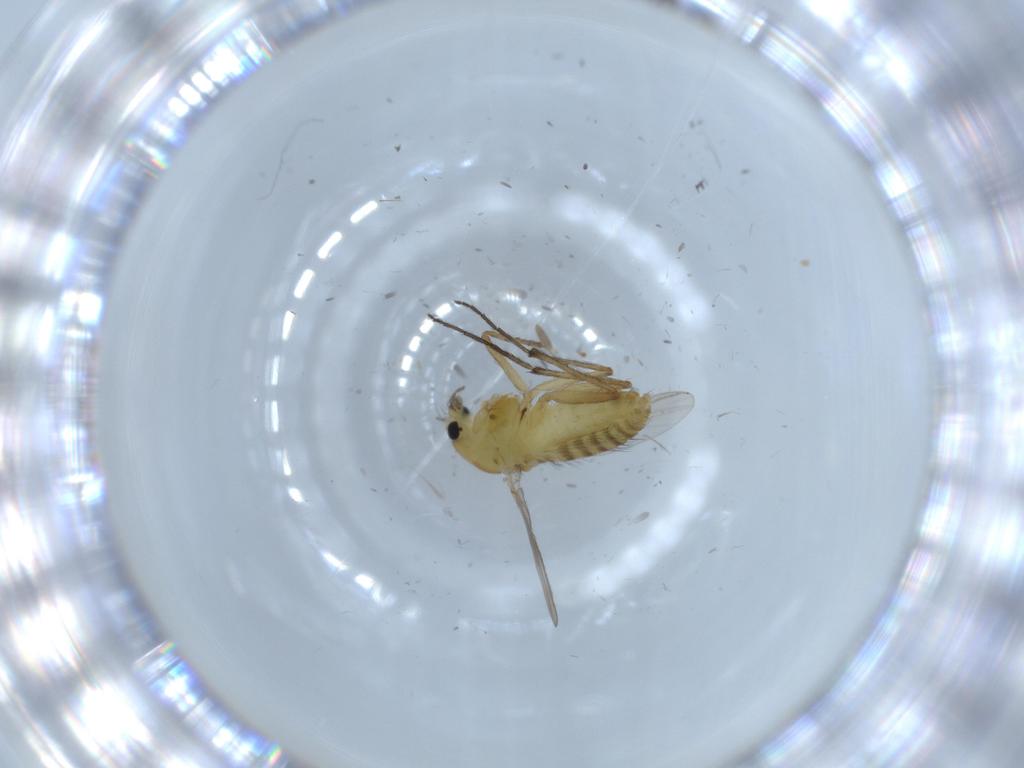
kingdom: Animalia
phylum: Arthropoda
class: Insecta
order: Diptera
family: Chironomidae
